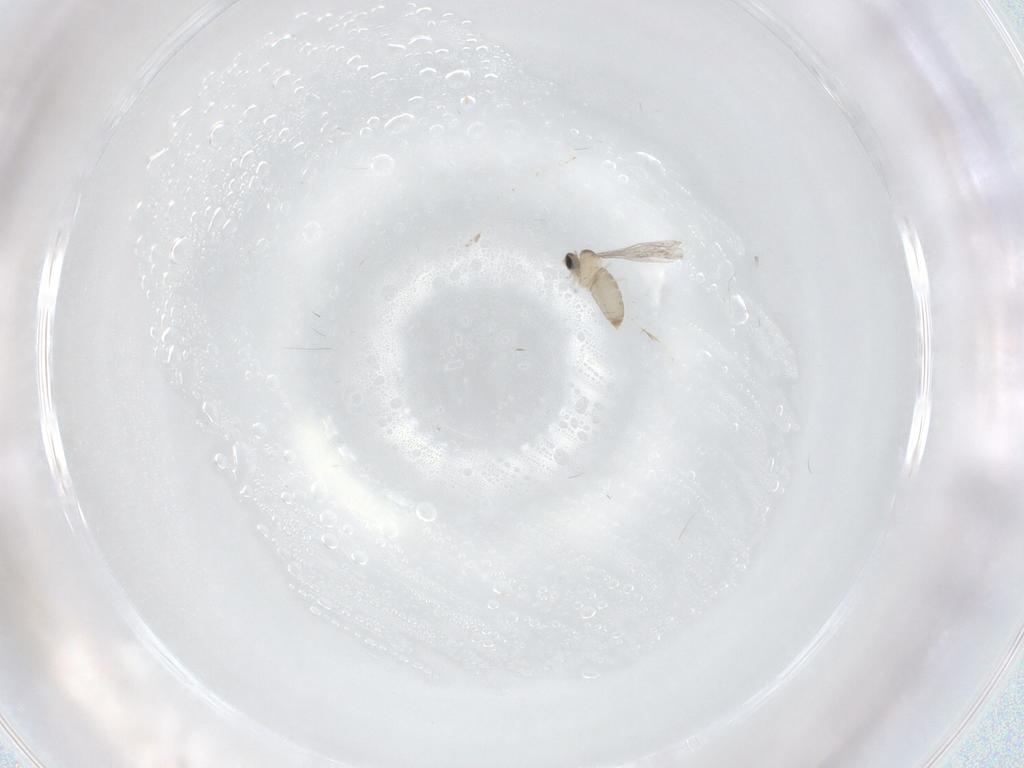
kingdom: Animalia
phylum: Arthropoda
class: Insecta
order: Diptera
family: Cecidomyiidae
